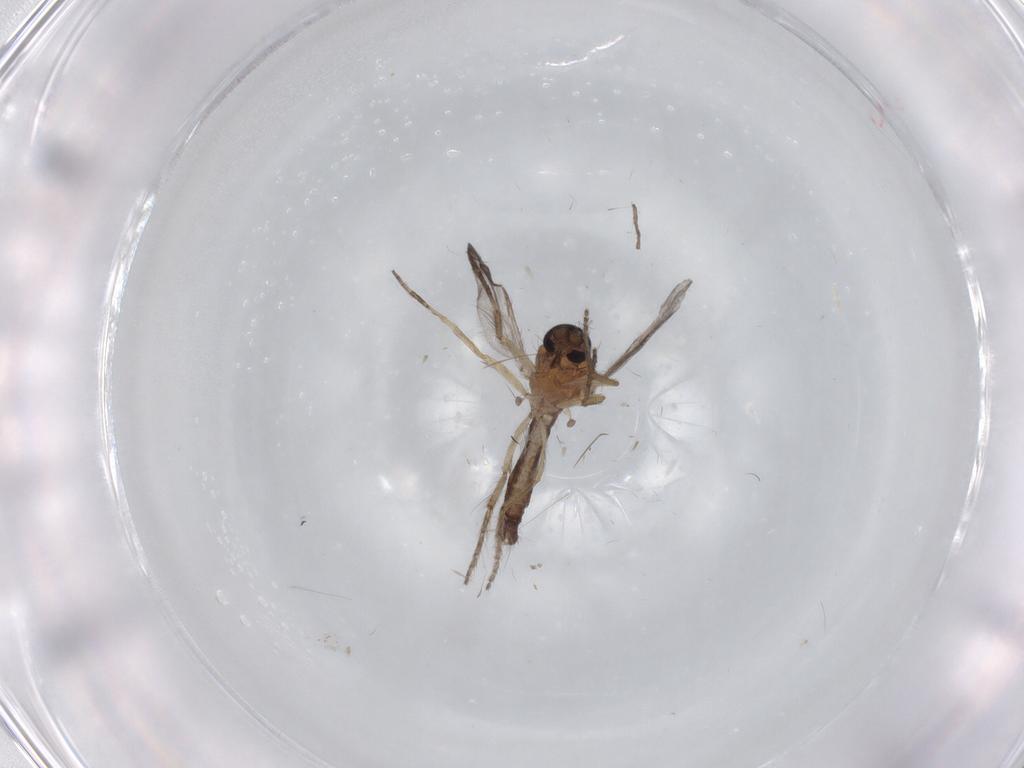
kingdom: Animalia
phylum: Arthropoda
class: Insecta
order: Diptera
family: Ceratopogonidae
